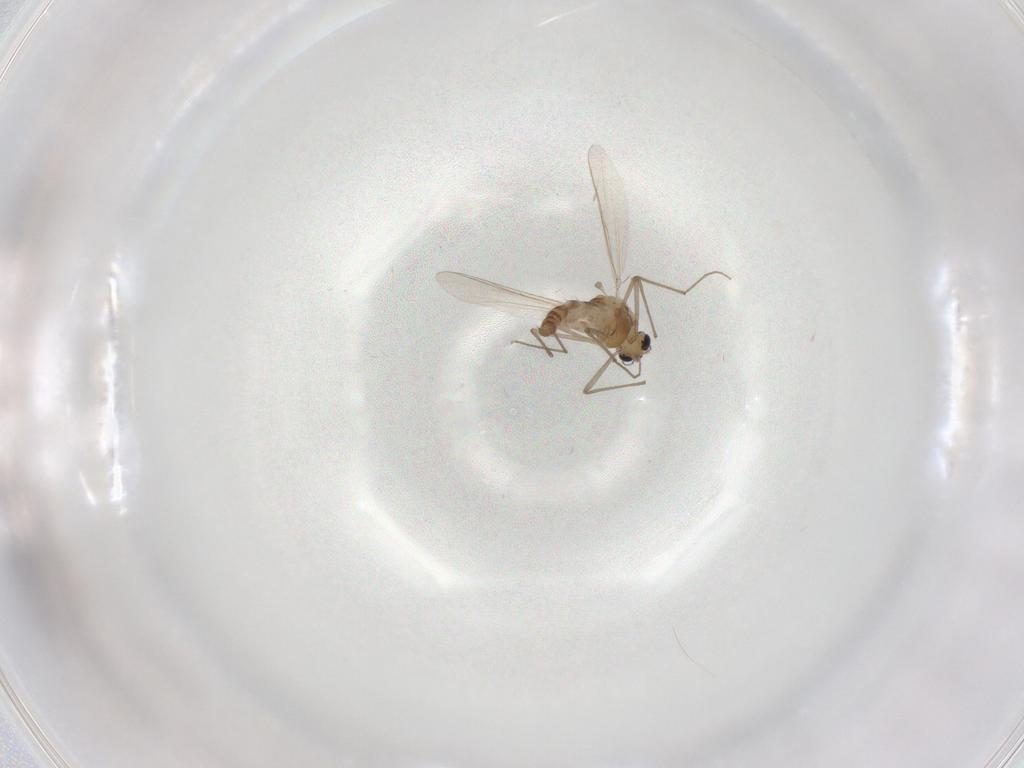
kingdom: Animalia
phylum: Arthropoda
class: Insecta
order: Diptera
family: Chironomidae
